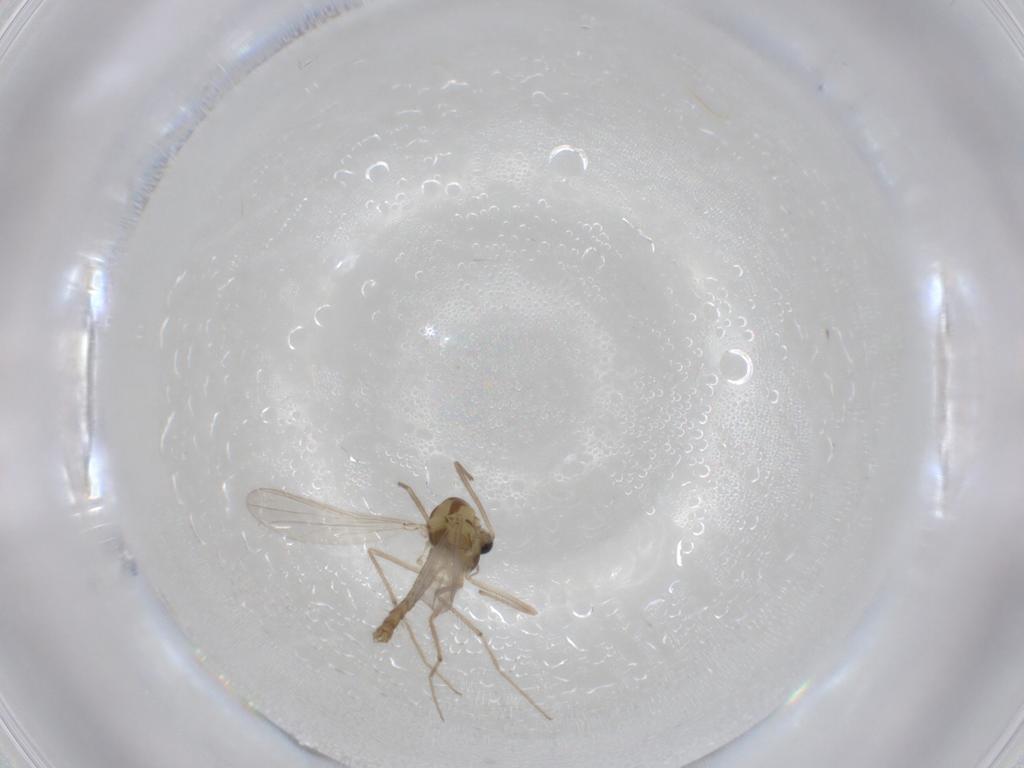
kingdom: Animalia
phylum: Arthropoda
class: Insecta
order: Diptera
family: Chironomidae
